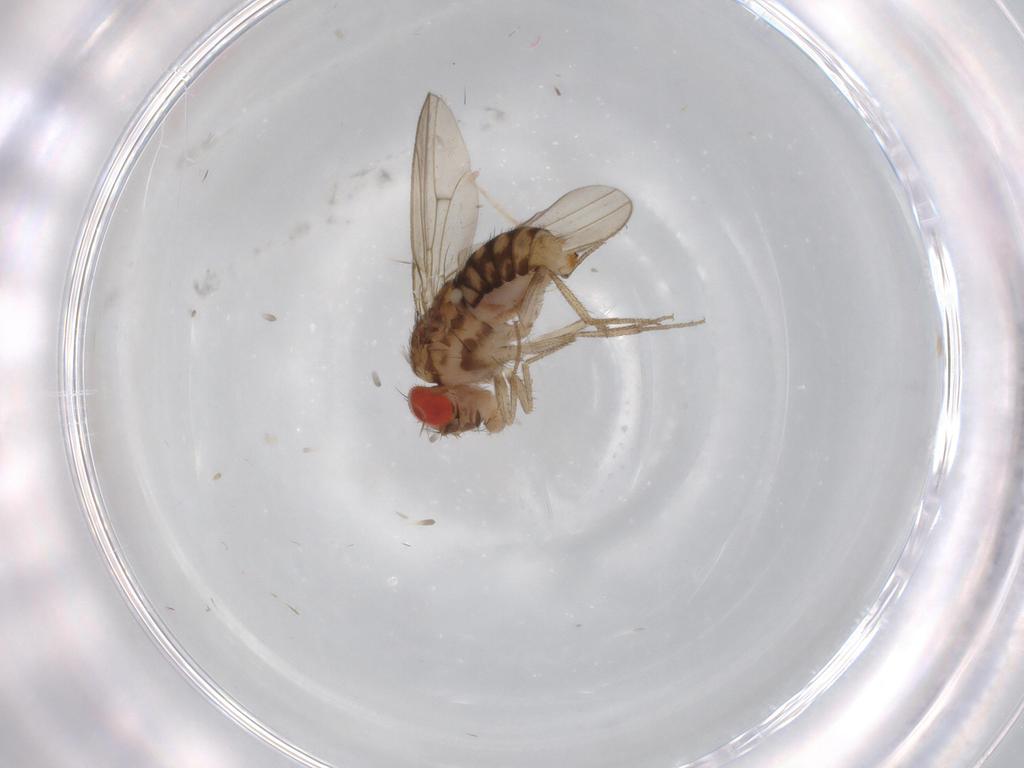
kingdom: Animalia
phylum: Arthropoda
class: Insecta
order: Diptera
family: Drosophilidae
